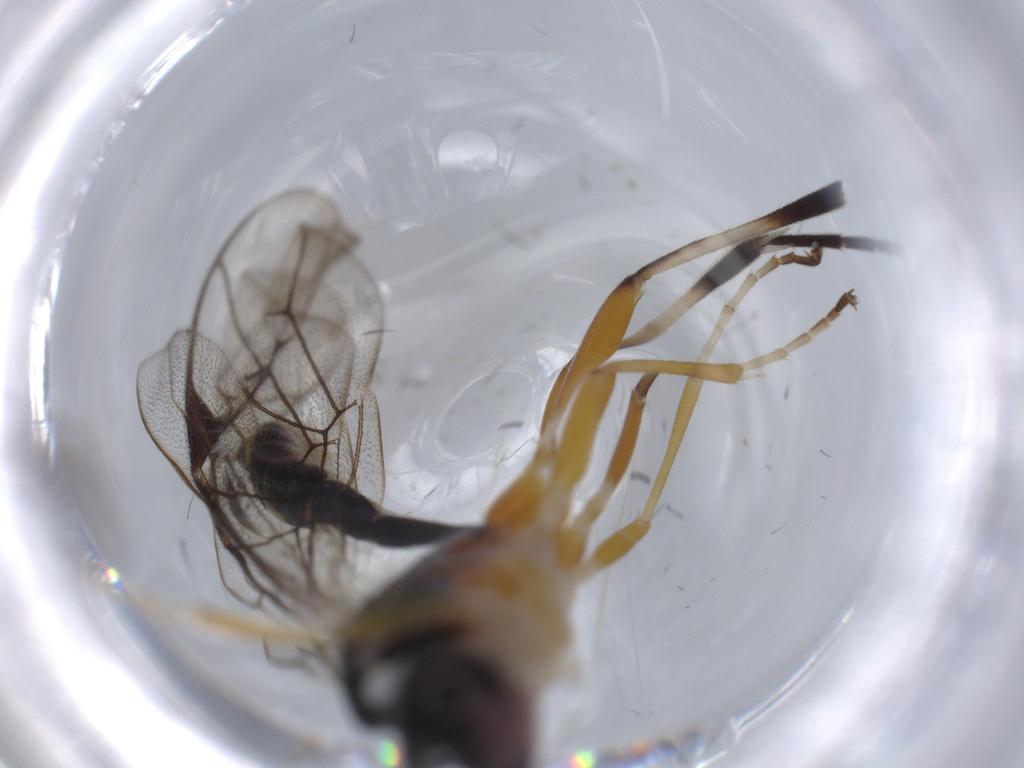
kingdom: Animalia
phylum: Arthropoda
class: Insecta
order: Hymenoptera
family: Ichneumonidae
